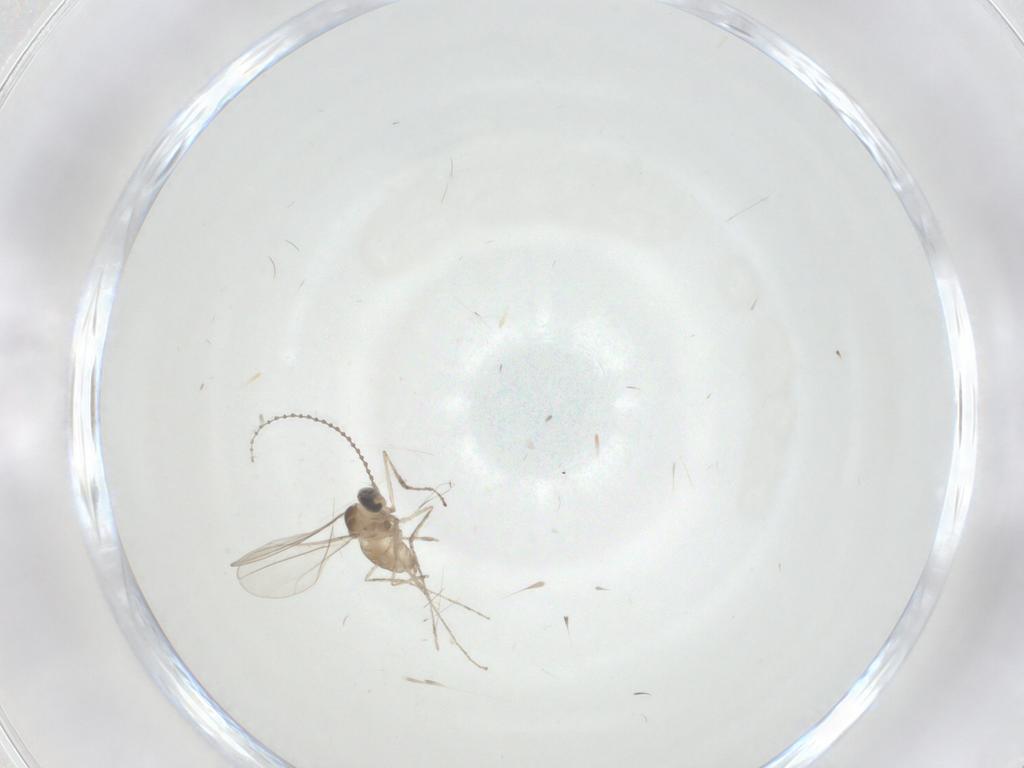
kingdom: Animalia
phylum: Arthropoda
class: Insecta
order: Diptera
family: Cecidomyiidae
